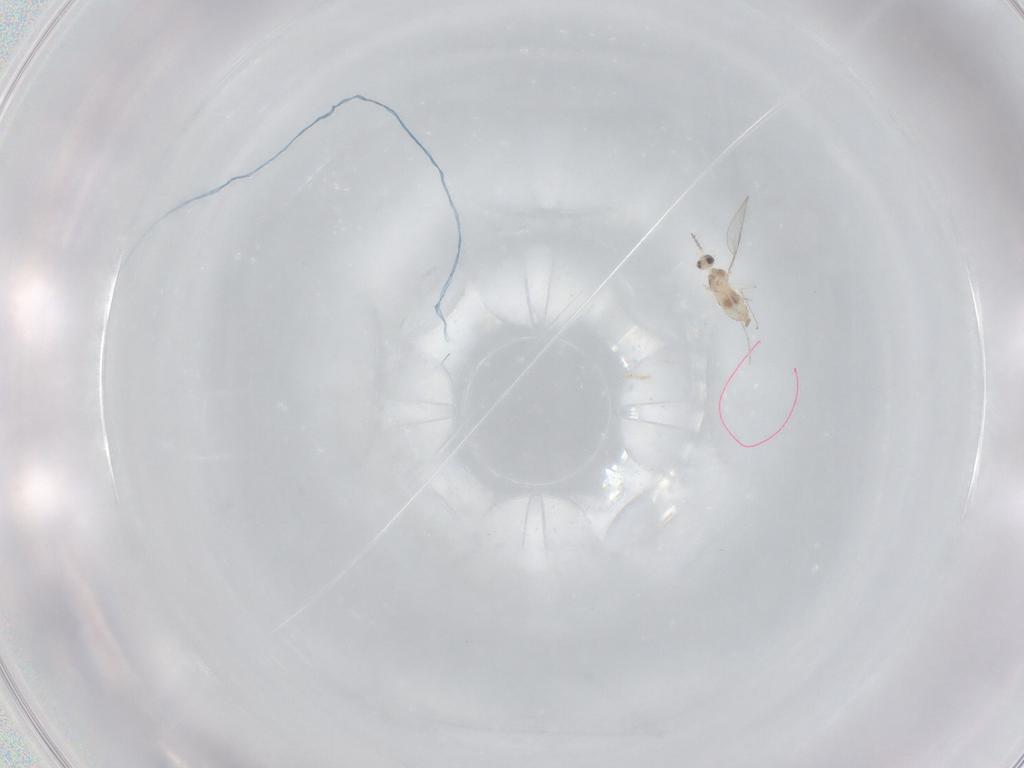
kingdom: Animalia
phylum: Arthropoda
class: Insecta
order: Diptera
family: Cecidomyiidae
